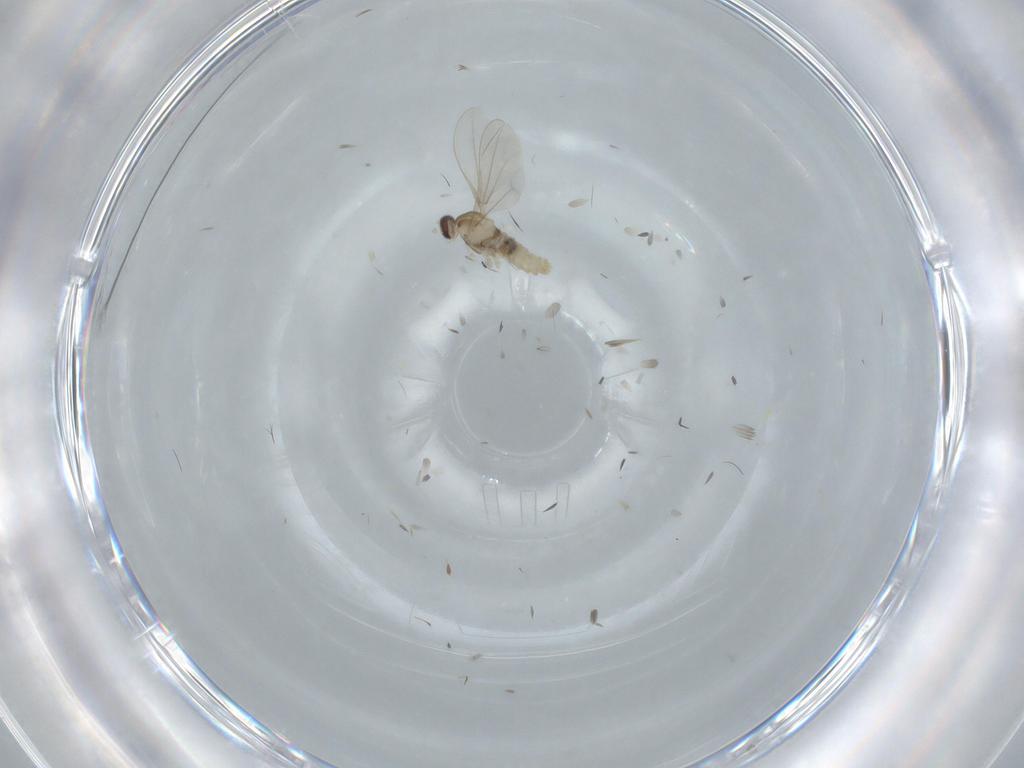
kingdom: Animalia
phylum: Arthropoda
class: Insecta
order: Diptera
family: Cecidomyiidae
